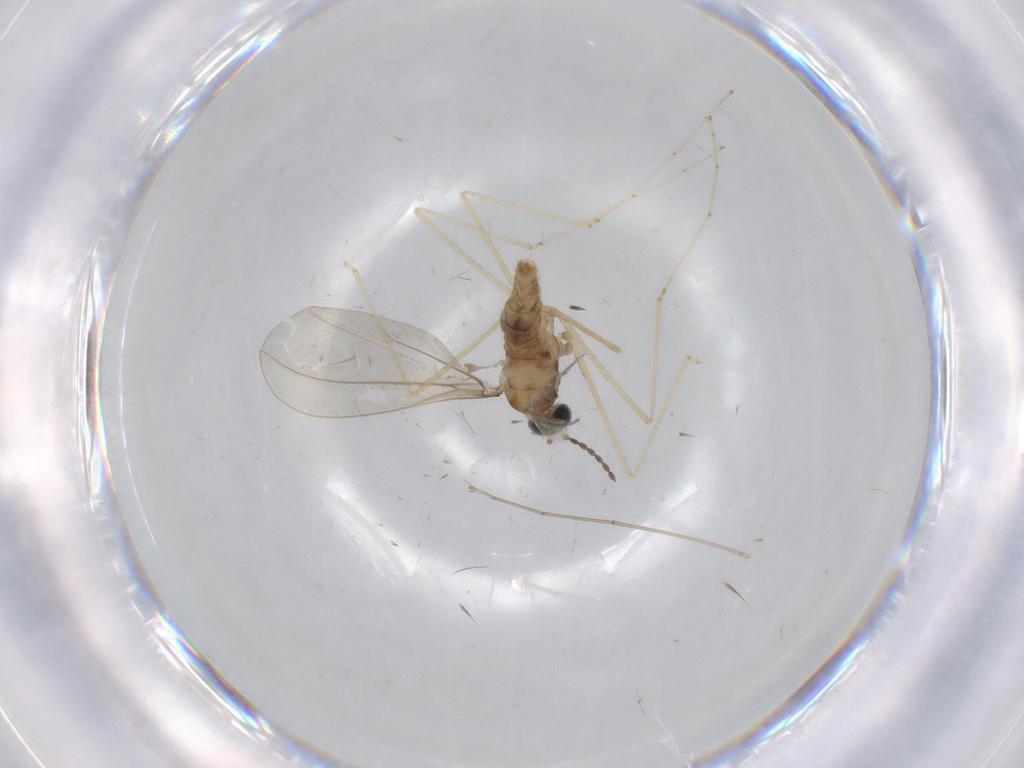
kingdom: Animalia
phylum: Arthropoda
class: Insecta
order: Diptera
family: Cecidomyiidae
